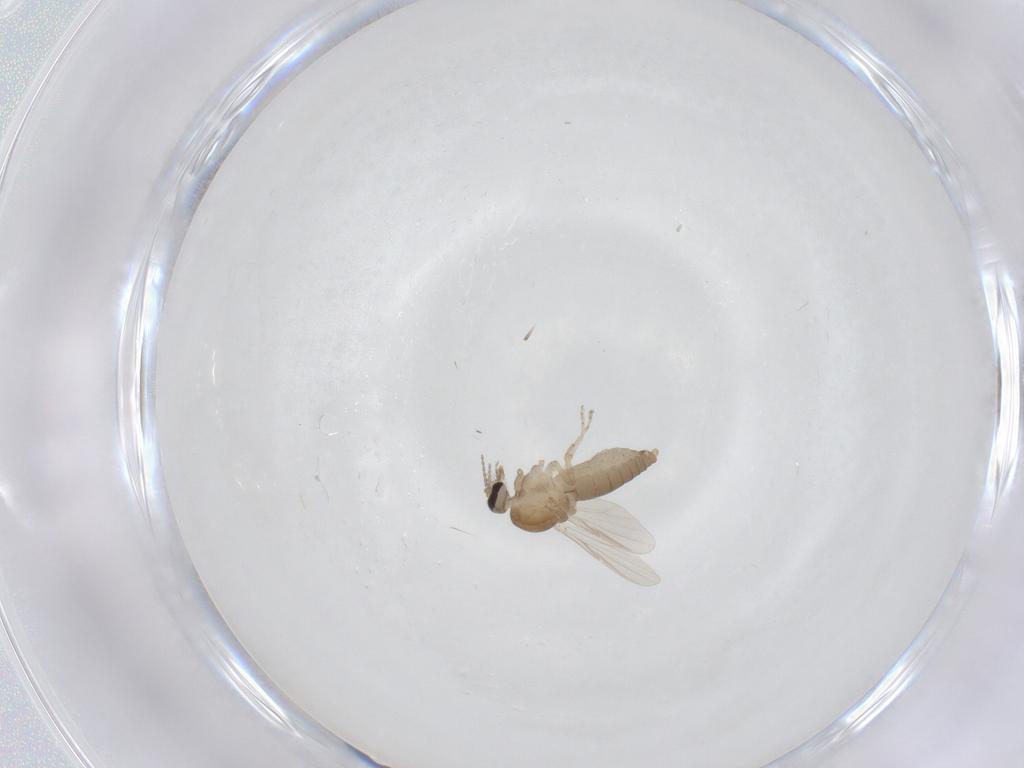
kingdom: Animalia
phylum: Arthropoda
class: Insecta
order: Diptera
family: Ceratopogonidae
